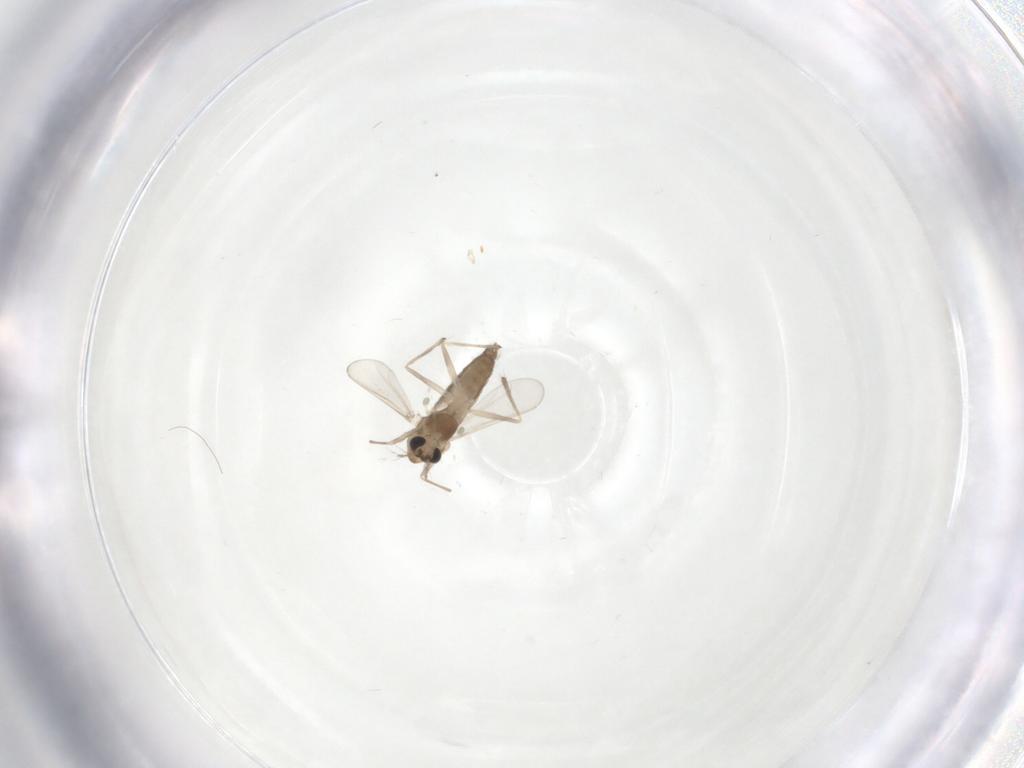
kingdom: Animalia
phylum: Arthropoda
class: Insecta
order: Diptera
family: Chironomidae
